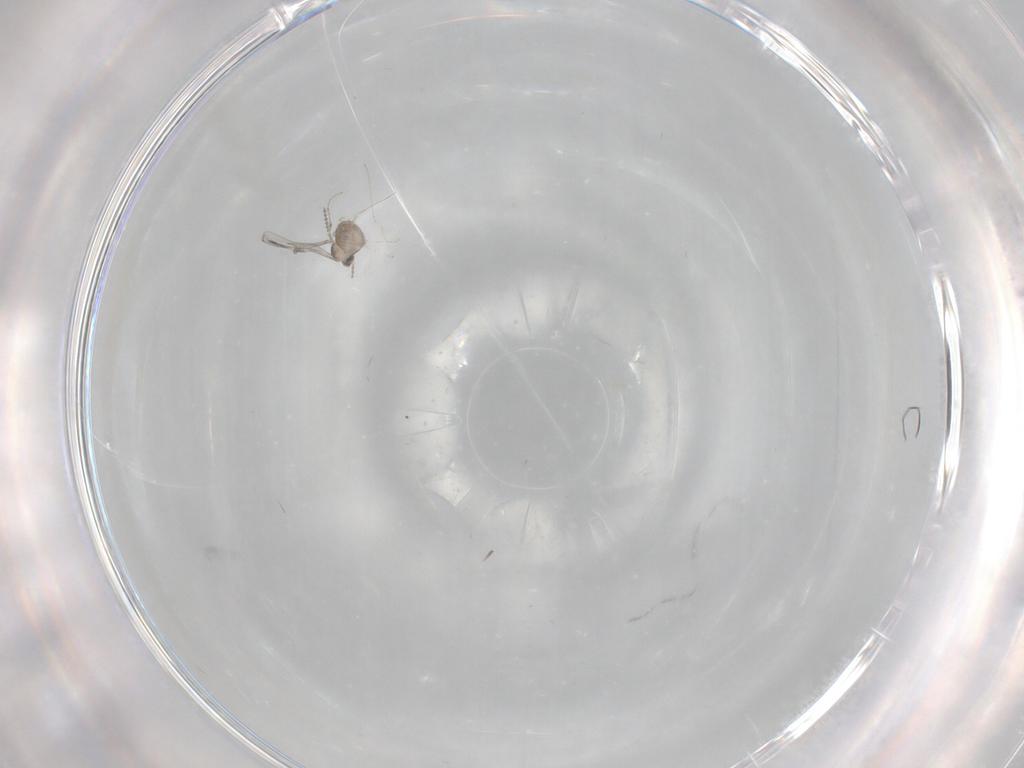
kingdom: Animalia
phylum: Arthropoda
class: Insecta
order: Diptera
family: Cecidomyiidae
